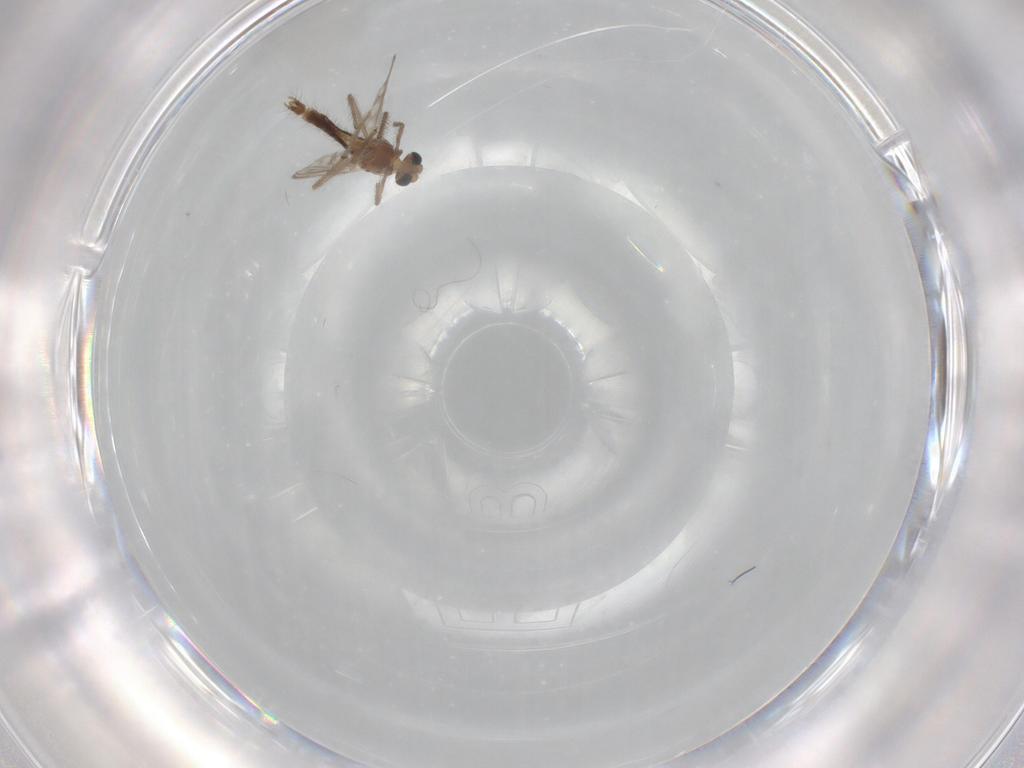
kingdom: Animalia
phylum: Arthropoda
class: Insecta
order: Diptera
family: Chironomidae
